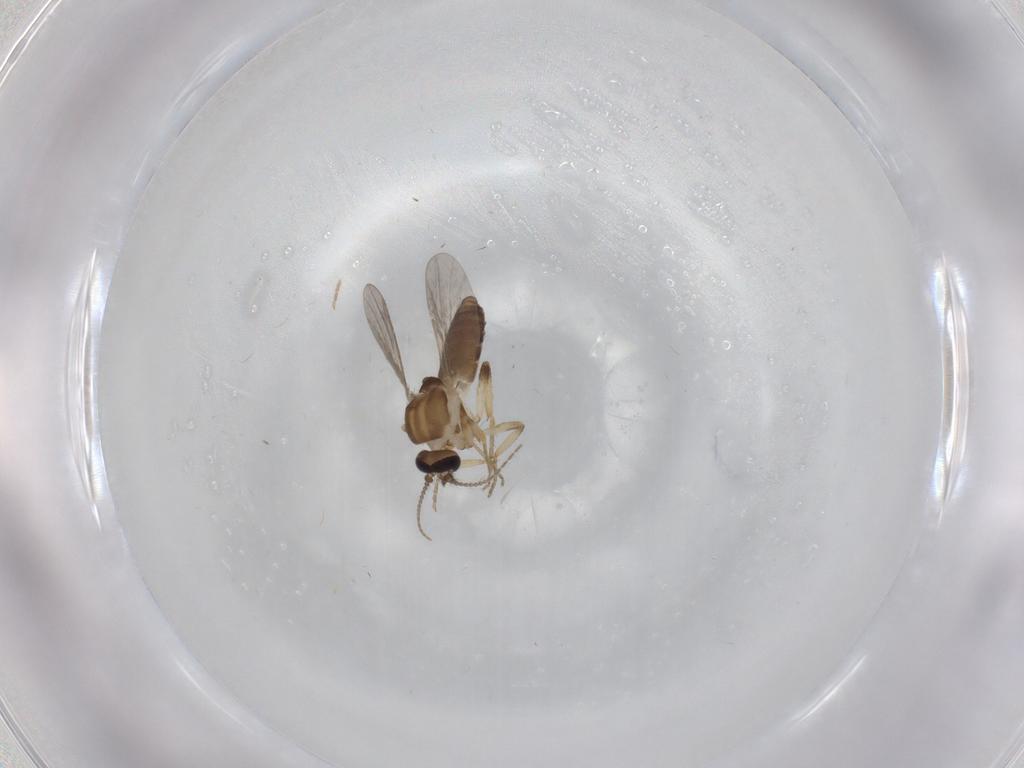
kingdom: Animalia
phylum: Arthropoda
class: Insecta
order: Diptera
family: Ceratopogonidae
